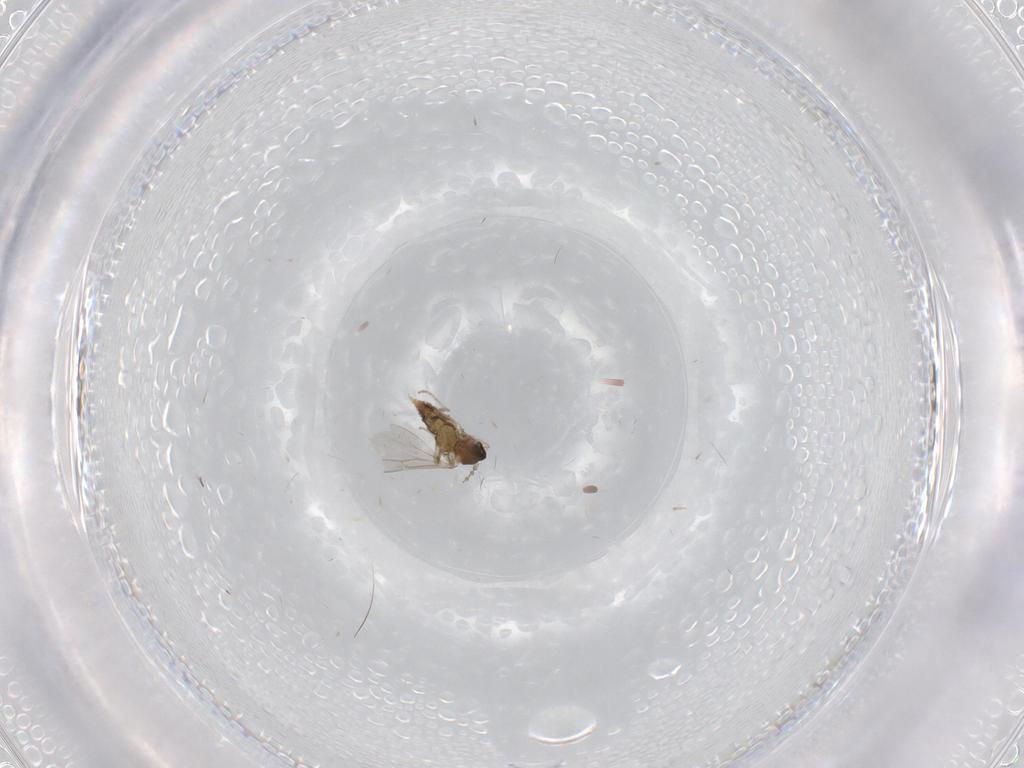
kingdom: Animalia
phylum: Arthropoda
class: Insecta
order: Diptera
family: Cecidomyiidae
